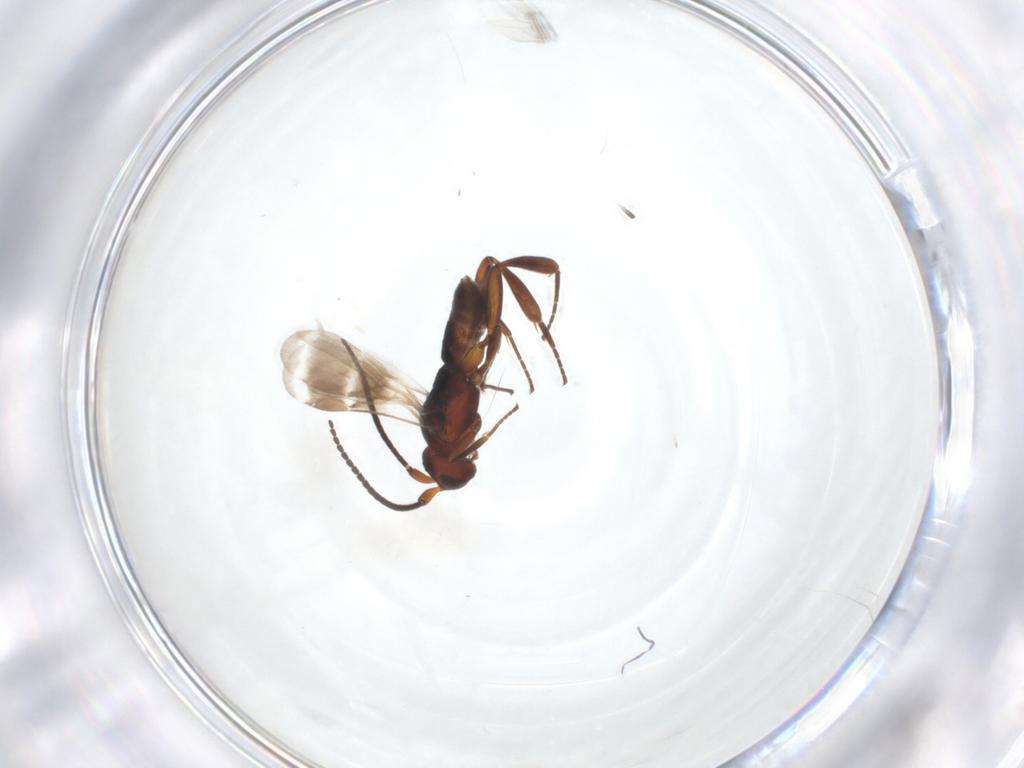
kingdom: Animalia
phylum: Arthropoda
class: Insecta
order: Hymenoptera
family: Braconidae
